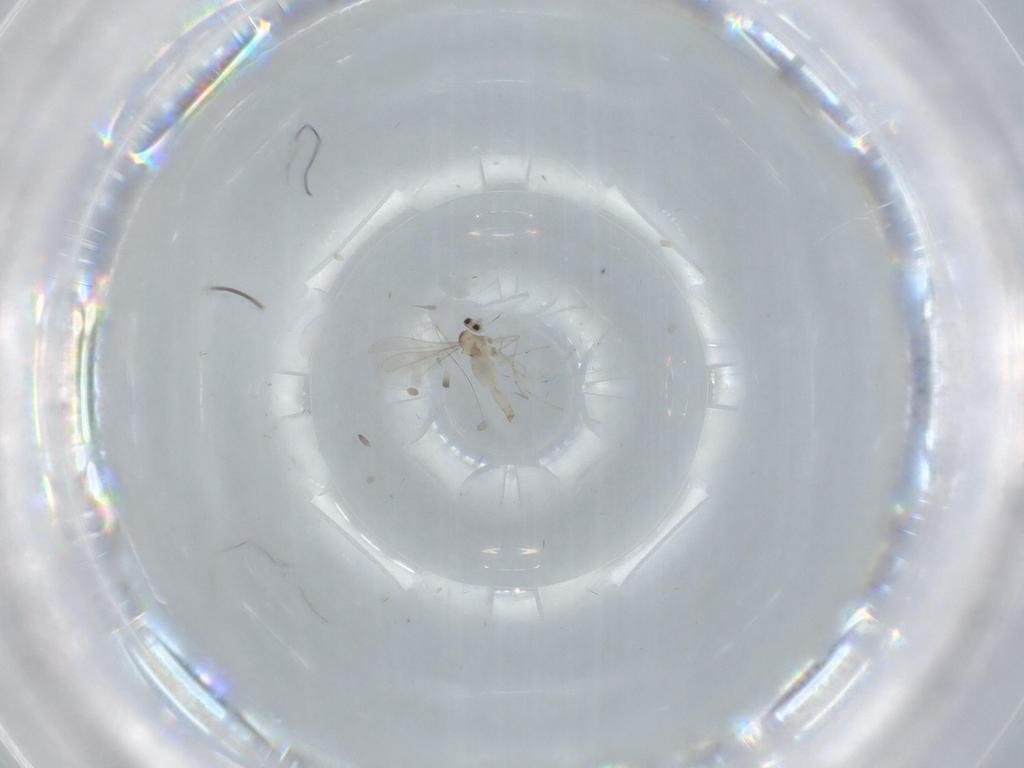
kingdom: Animalia
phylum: Arthropoda
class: Insecta
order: Diptera
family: Cecidomyiidae
